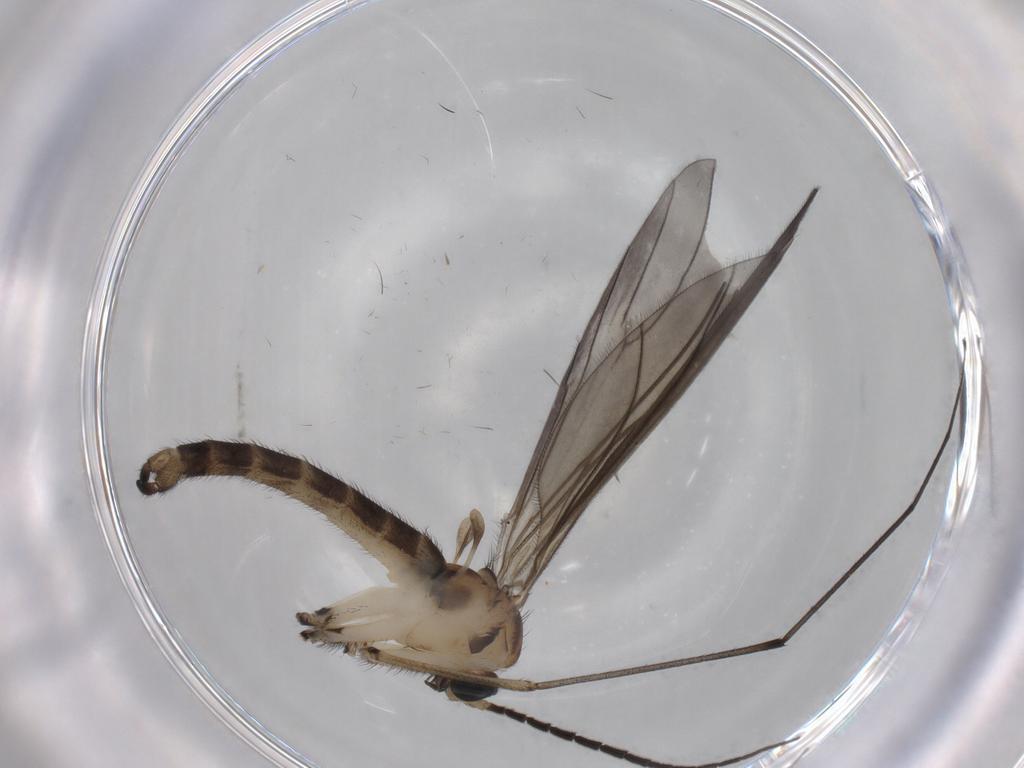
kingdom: Animalia
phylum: Arthropoda
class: Insecta
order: Diptera
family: Sciaridae
